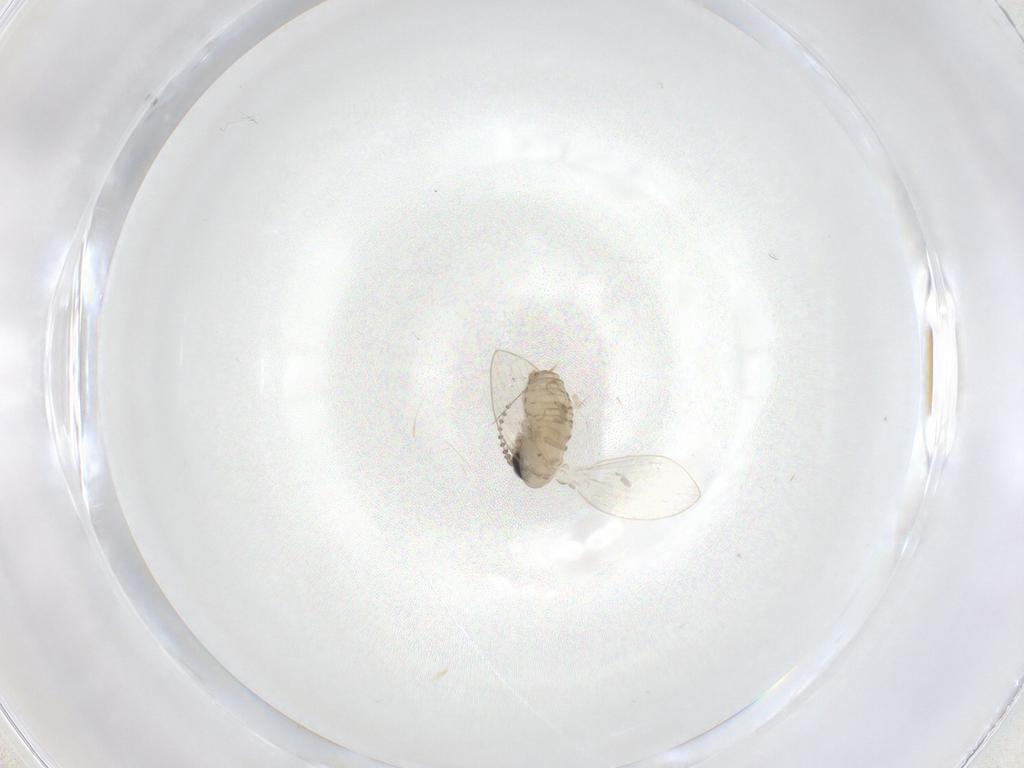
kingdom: Animalia
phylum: Arthropoda
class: Insecta
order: Diptera
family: Psychodidae
